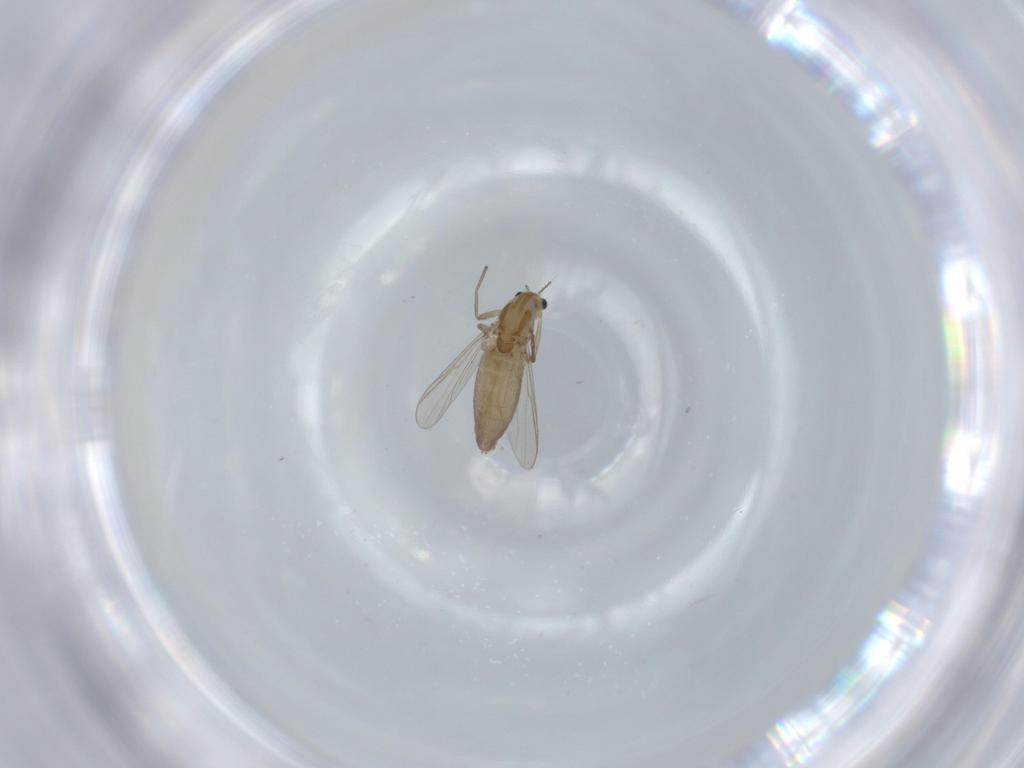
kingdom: Animalia
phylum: Arthropoda
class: Insecta
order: Diptera
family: Chironomidae
